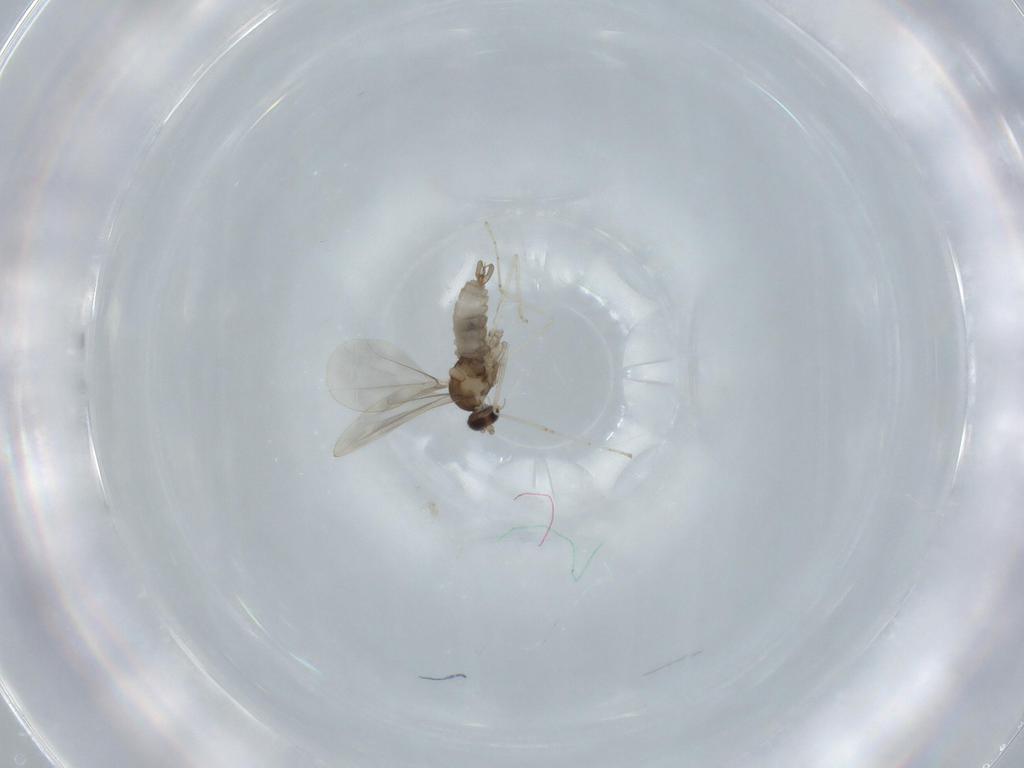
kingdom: Animalia
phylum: Arthropoda
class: Insecta
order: Diptera
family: Cecidomyiidae
